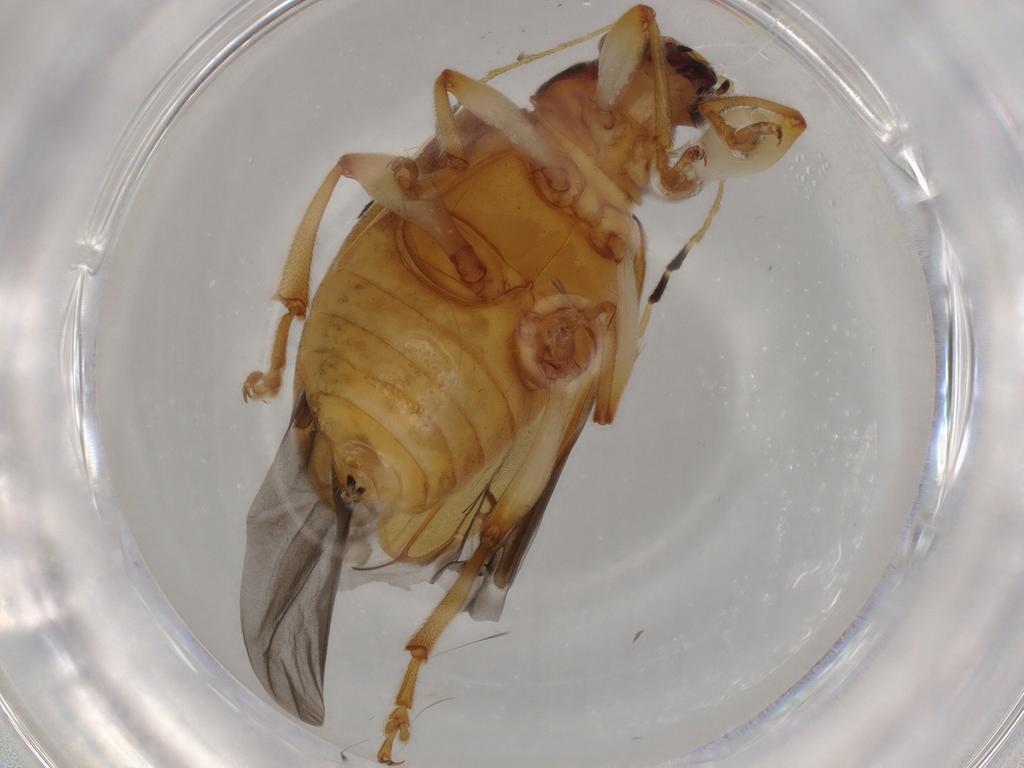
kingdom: Animalia
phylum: Arthropoda
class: Insecta
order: Coleoptera
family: Chrysomelidae
